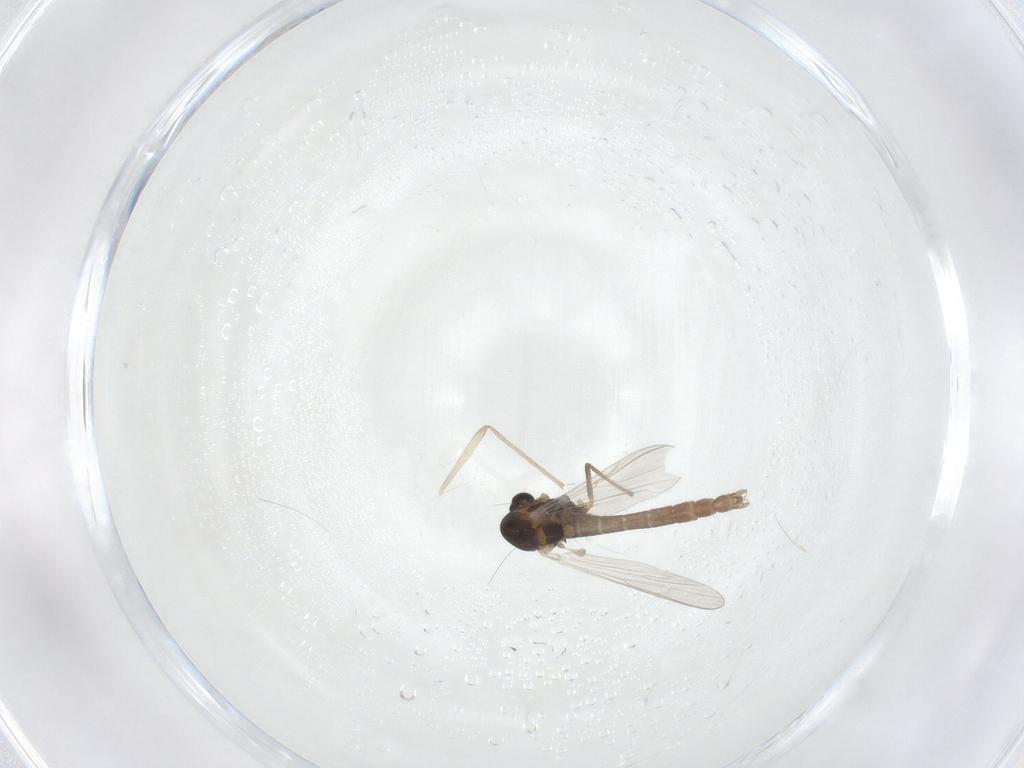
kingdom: Animalia
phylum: Arthropoda
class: Insecta
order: Diptera
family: Chironomidae
